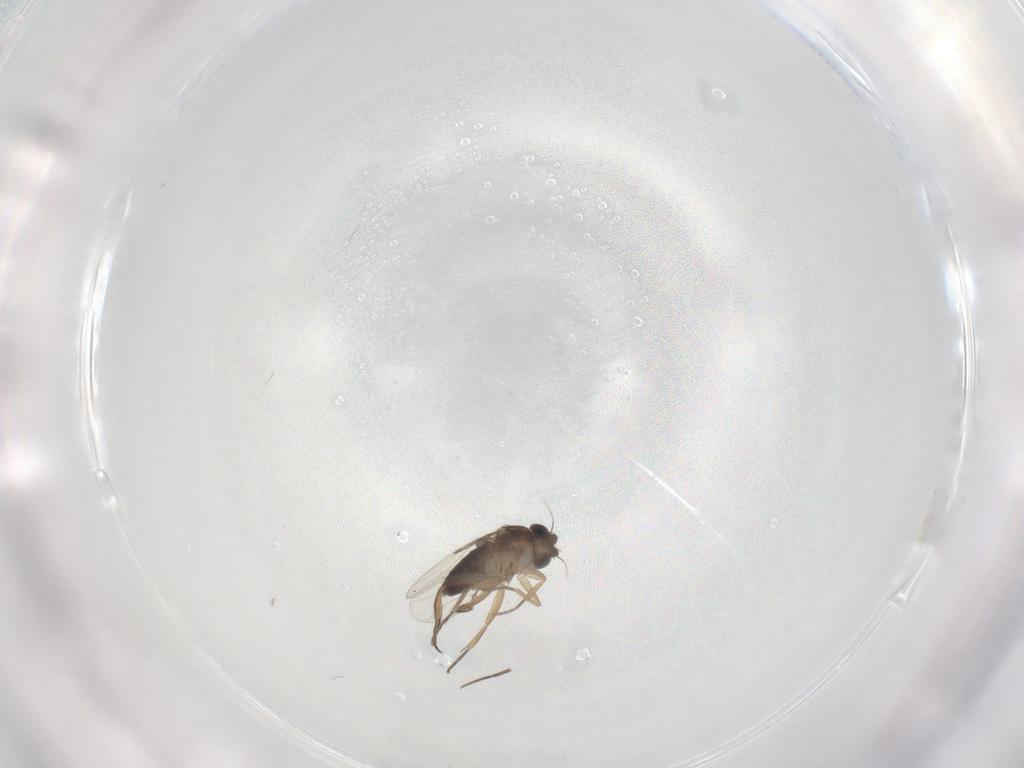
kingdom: Animalia
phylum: Arthropoda
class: Insecta
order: Diptera
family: Phoridae
